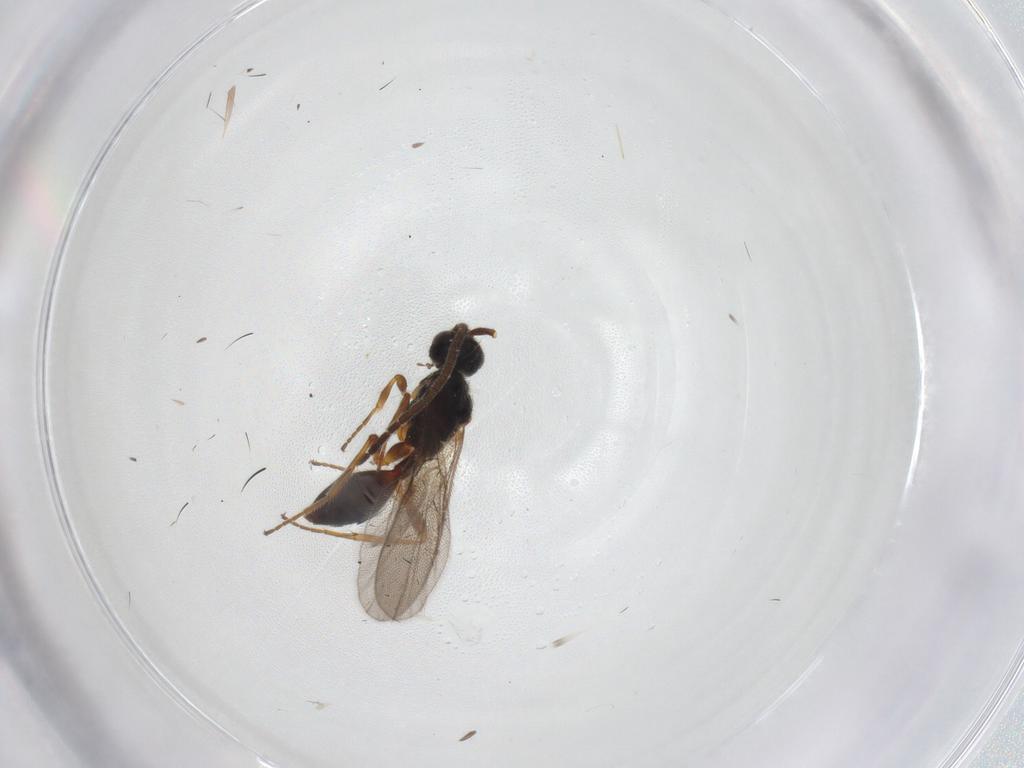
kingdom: Animalia
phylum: Arthropoda
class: Insecta
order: Hymenoptera
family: Diapriidae
